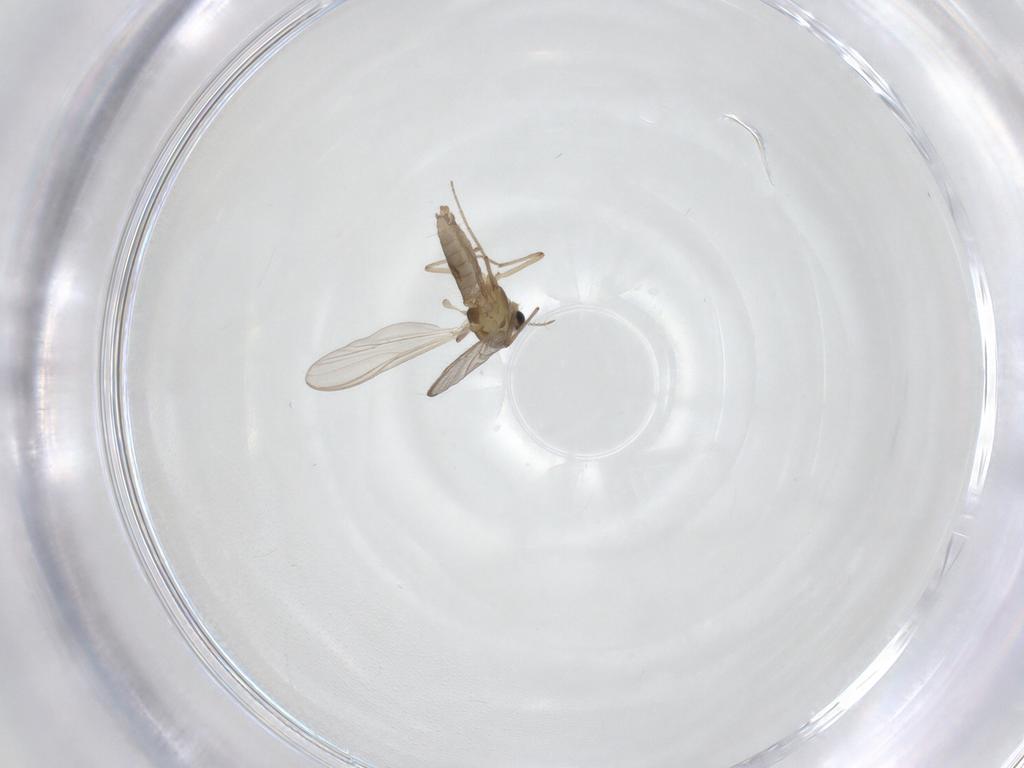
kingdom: Animalia
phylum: Arthropoda
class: Insecta
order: Diptera
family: Chironomidae
